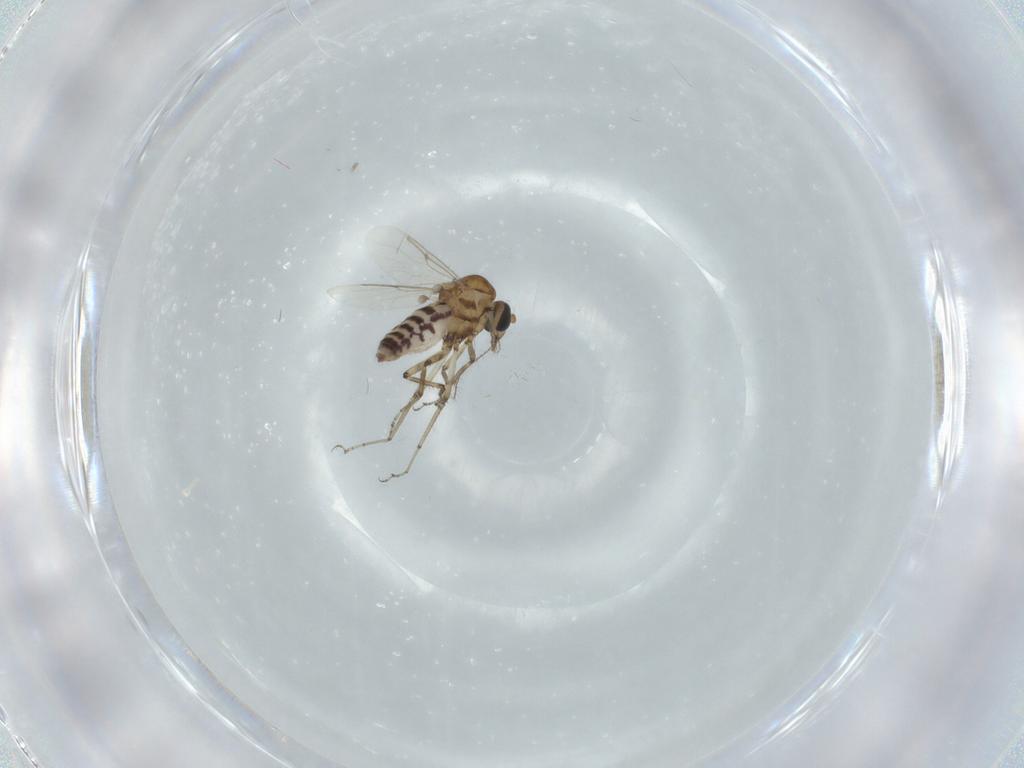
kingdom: Animalia
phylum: Arthropoda
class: Insecta
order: Diptera
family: Ceratopogonidae
